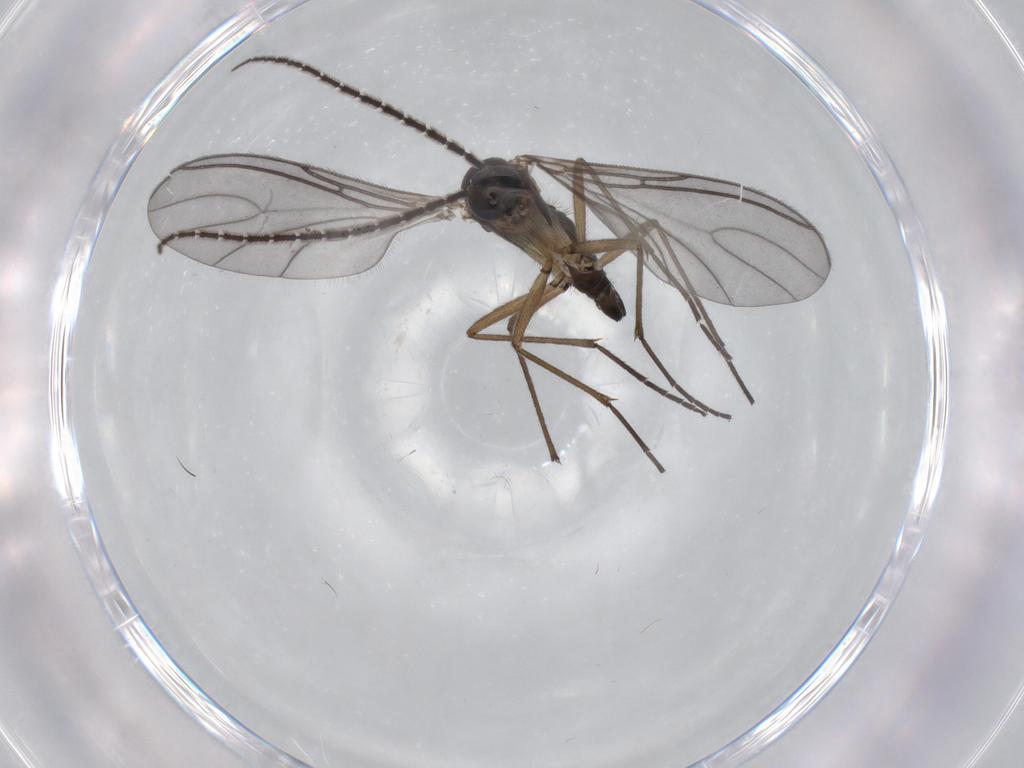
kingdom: Animalia
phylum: Arthropoda
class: Insecta
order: Diptera
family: Sciaridae
